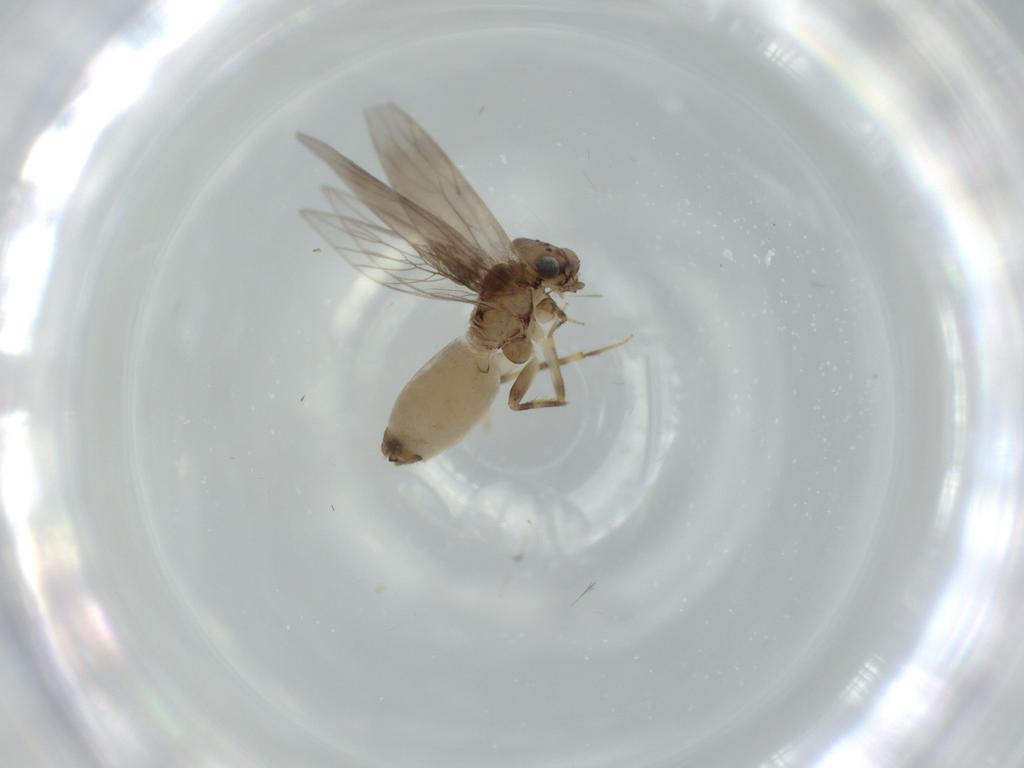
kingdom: Animalia
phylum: Arthropoda
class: Insecta
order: Psocodea
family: Lepidopsocidae
